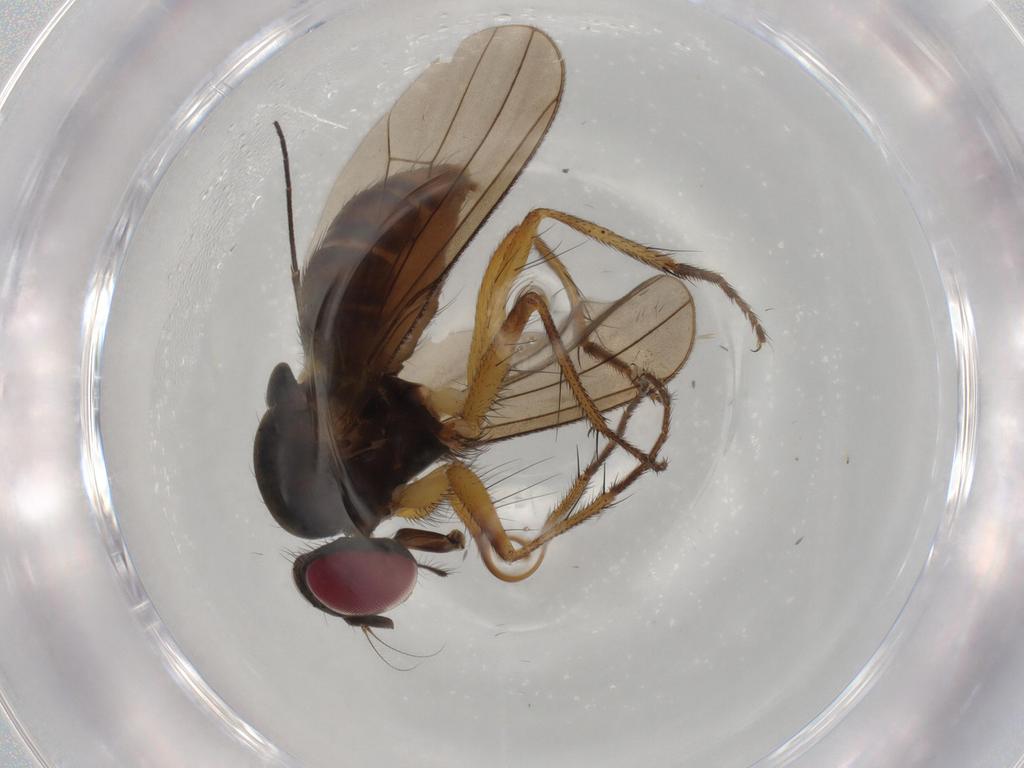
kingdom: Animalia
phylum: Arthropoda
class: Insecta
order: Diptera
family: Anthomyiidae
